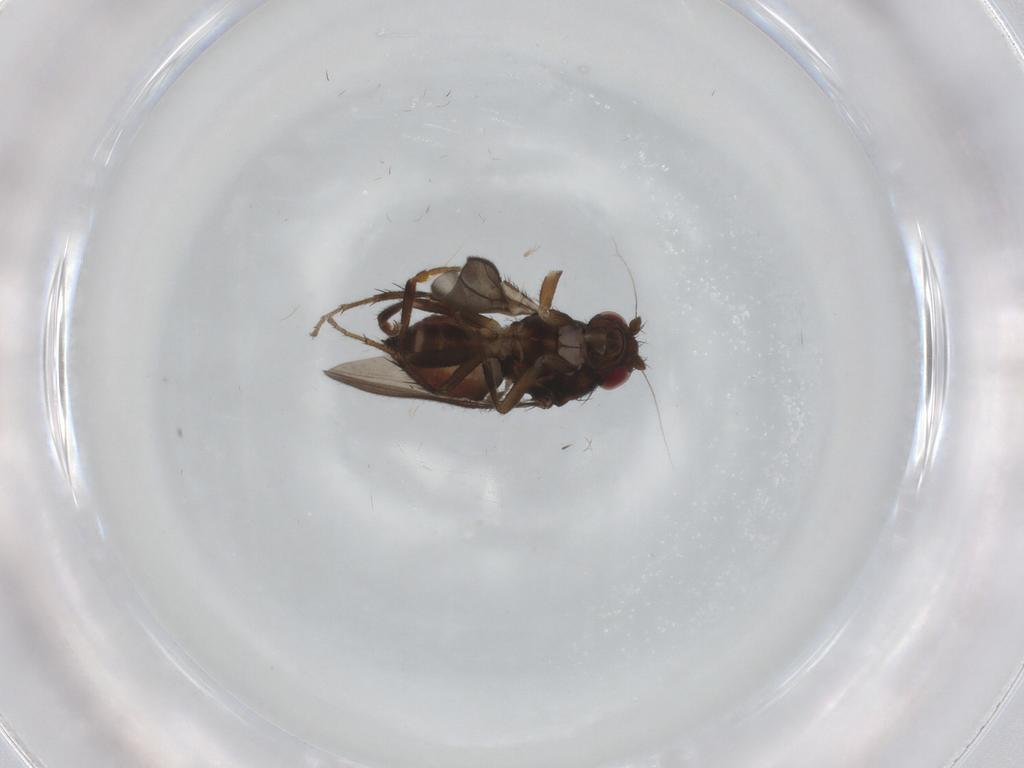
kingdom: Animalia
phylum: Arthropoda
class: Insecta
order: Diptera
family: Sphaeroceridae
